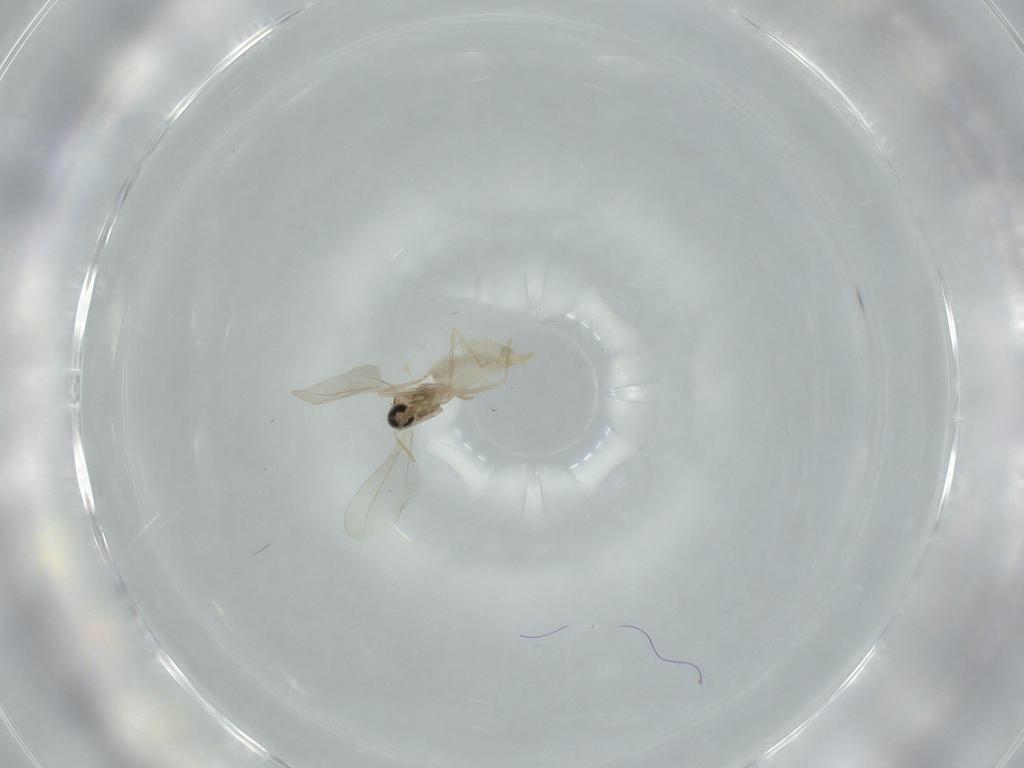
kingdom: Animalia
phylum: Arthropoda
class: Insecta
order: Diptera
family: Cecidomyiidae
